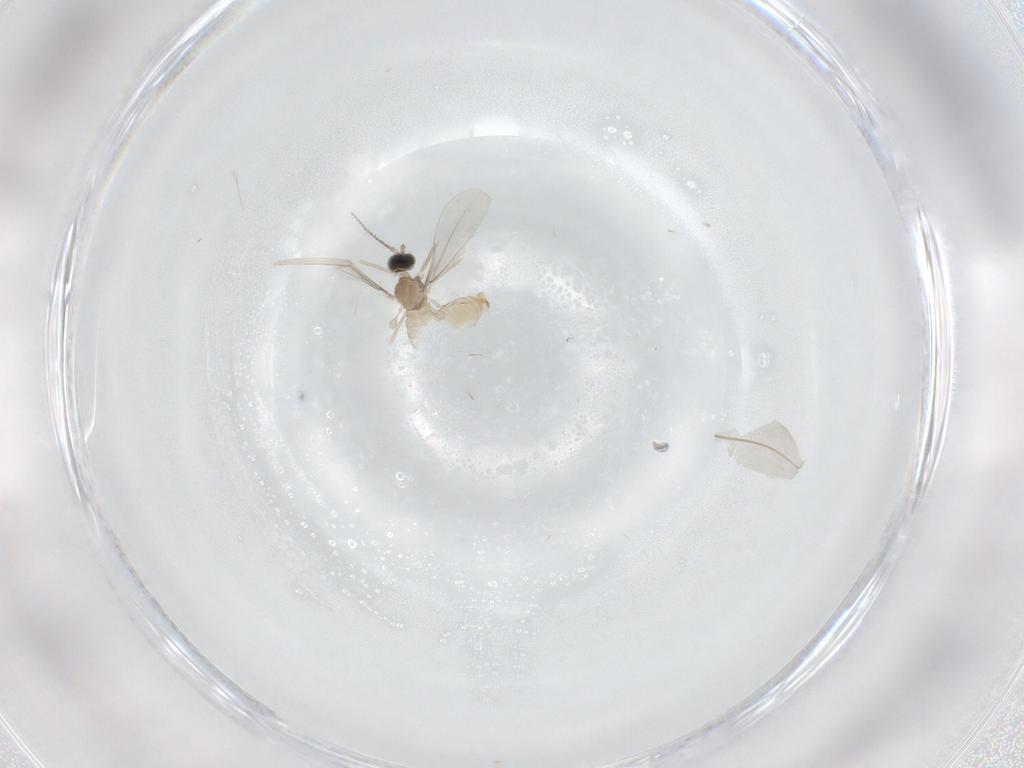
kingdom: Animalia
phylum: Arthropoda
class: Insecta
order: Diptera
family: Cecidomyiidae
